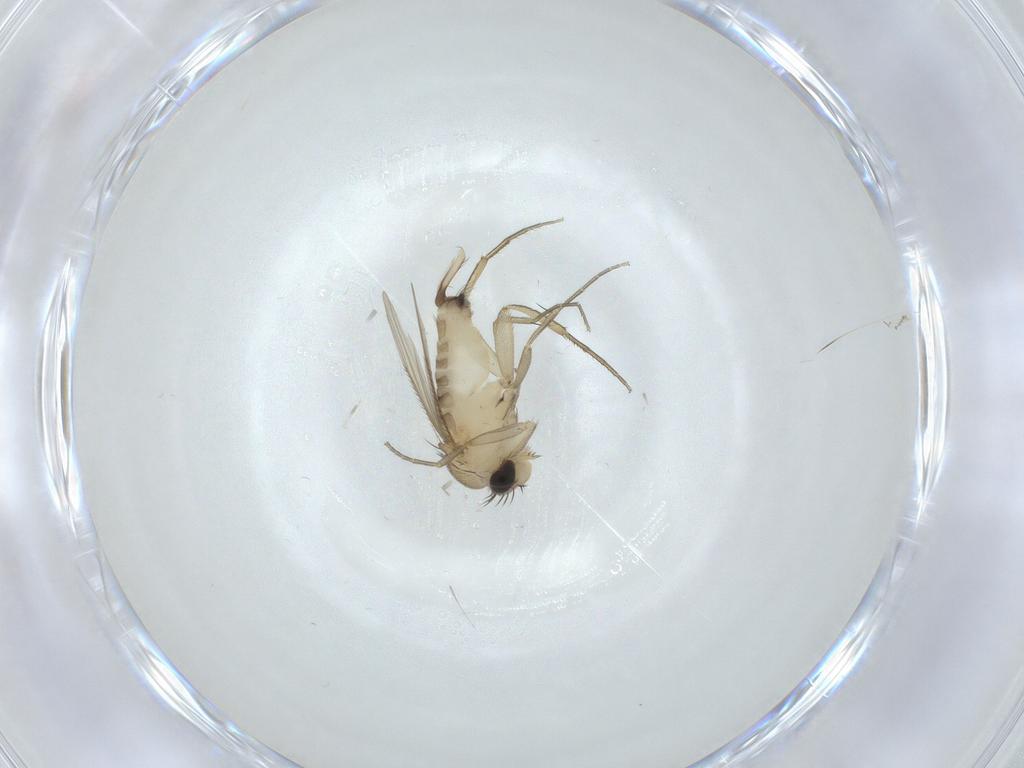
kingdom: Animalia
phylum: Arthropoda
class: Insecta
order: Diptera
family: Phoridae
